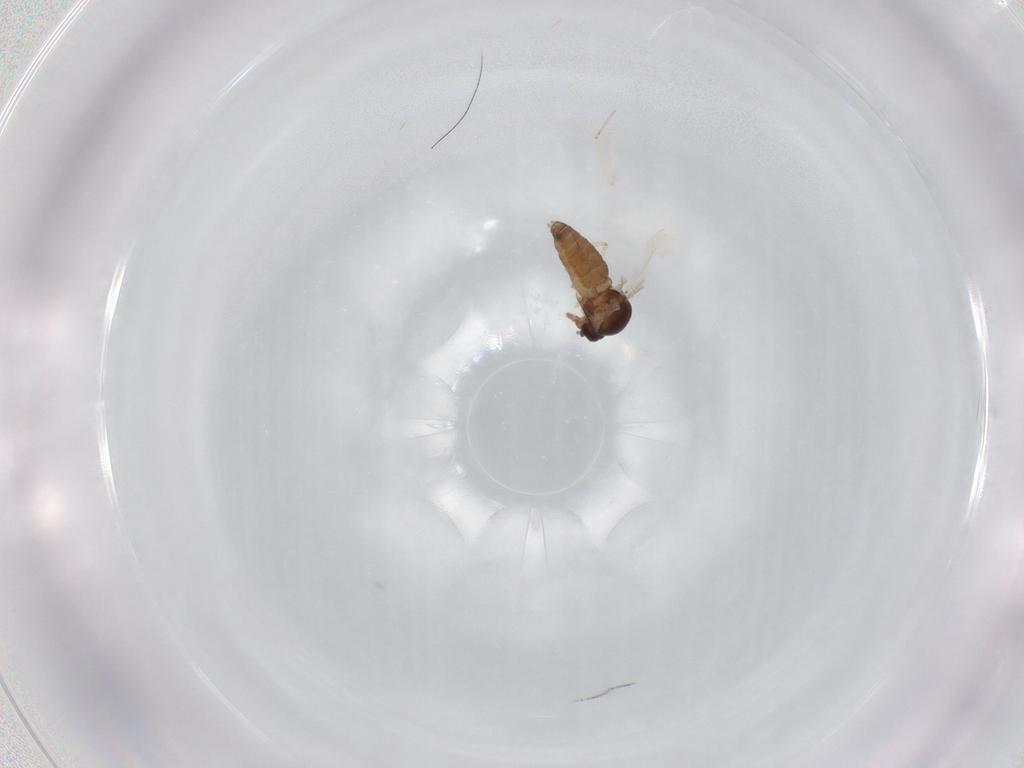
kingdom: Animalia
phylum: Arthropoda
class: Insecta
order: Diptera
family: Ceratopogonidae
